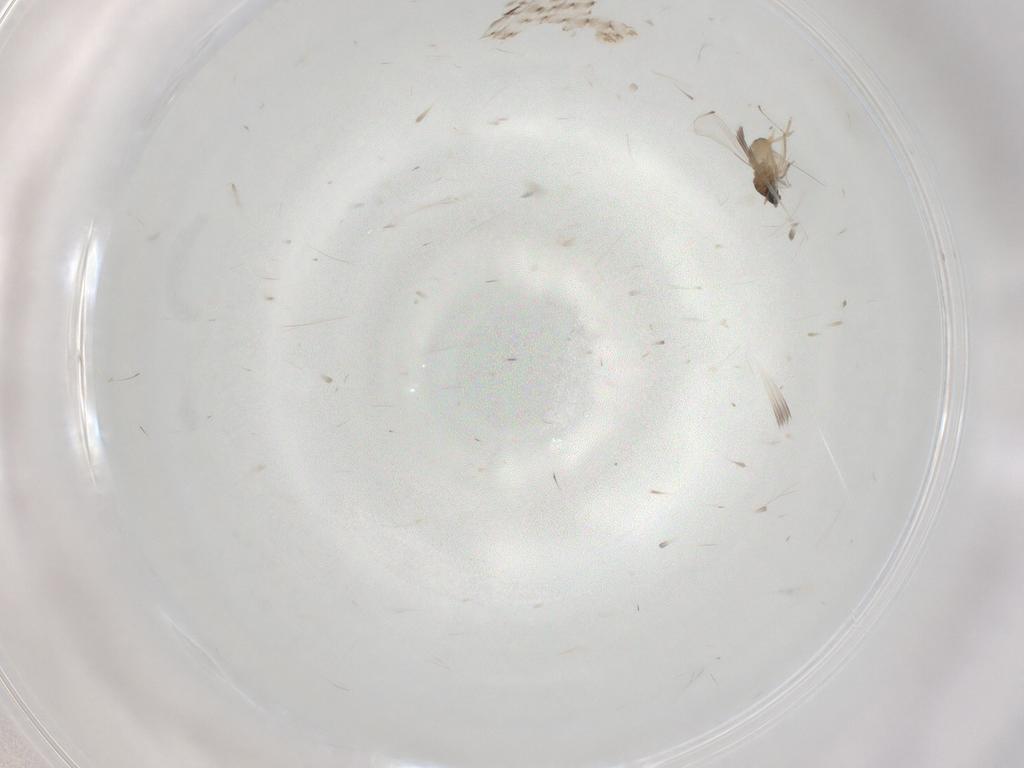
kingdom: Animalia
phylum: Arthropoda
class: Insecta
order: Diptera
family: Cecidomyiidae
